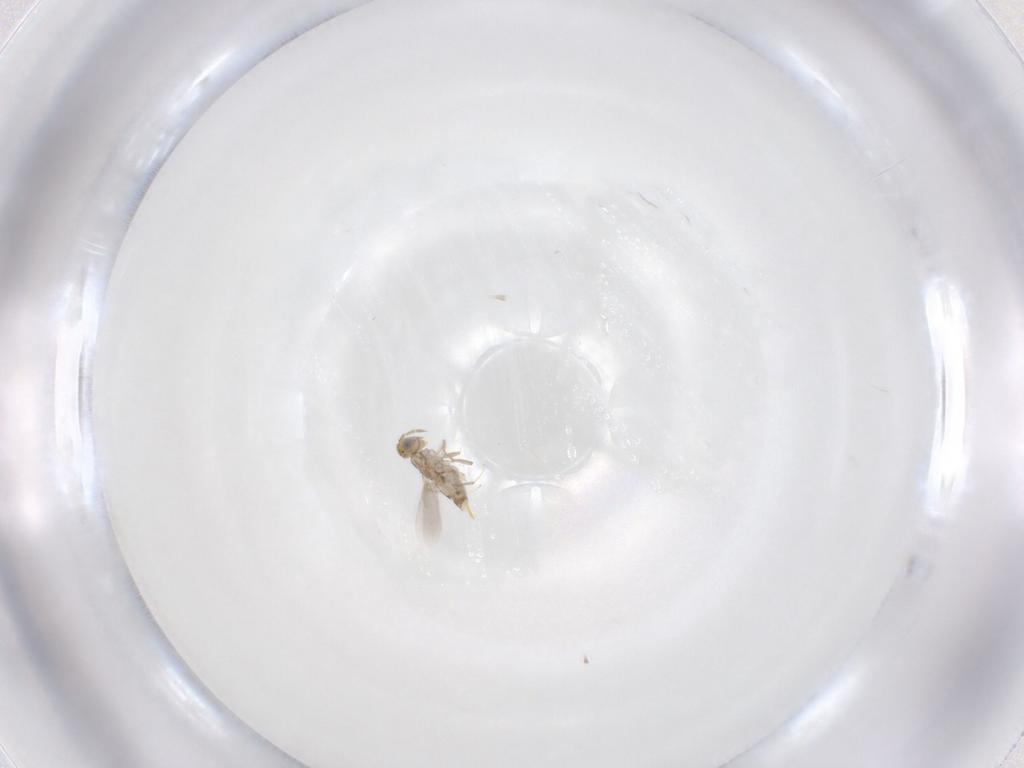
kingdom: Animalia
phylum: Arthropoda
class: Insecta
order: Hymenoptera
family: Aphelinidae
